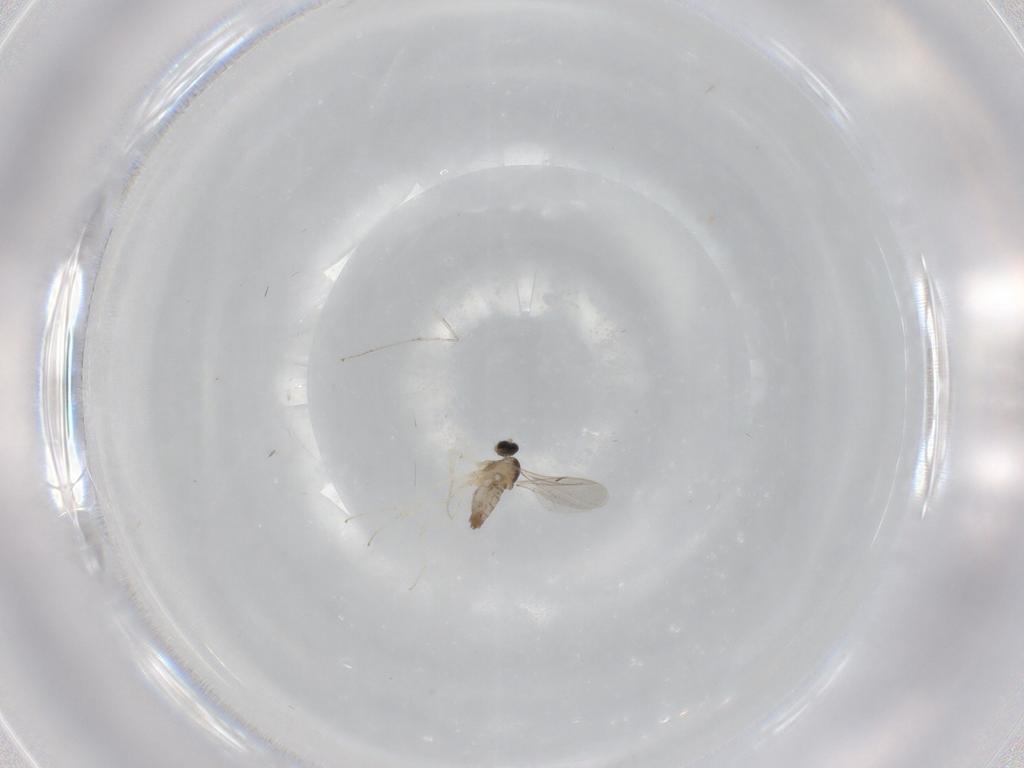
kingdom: Animalia
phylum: Arthropoda
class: Insecta
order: Diptera
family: Cecidomyiidae
